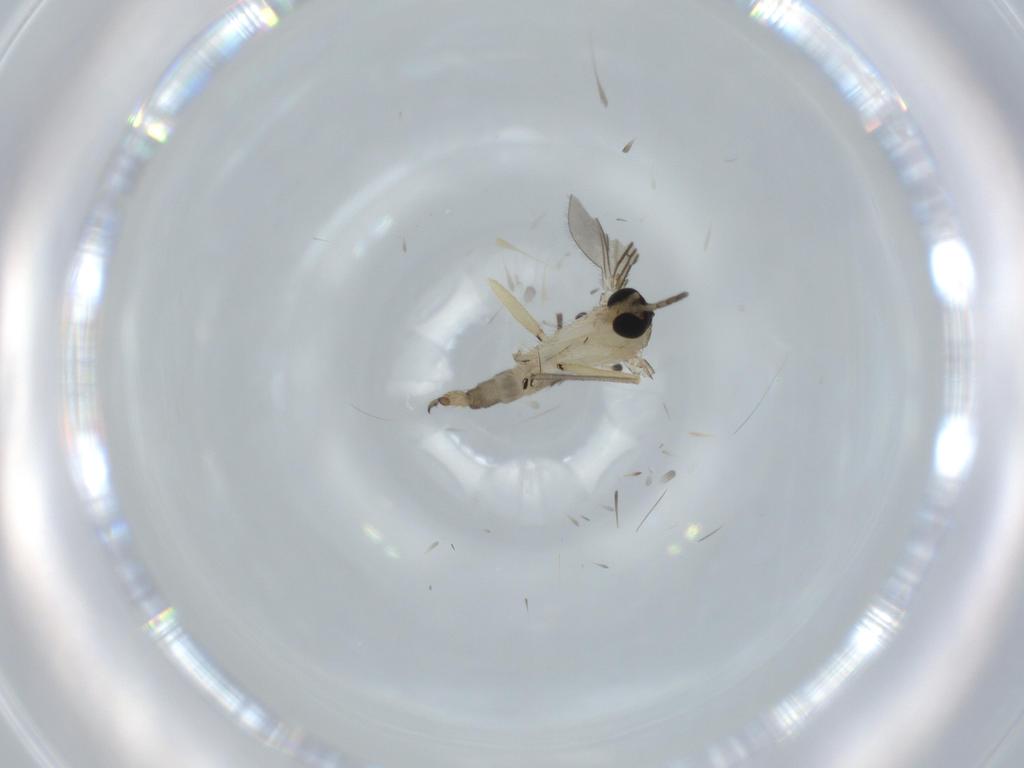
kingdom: Animalia
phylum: Arthropoda
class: Insecta
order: Diptera
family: Sciaridae
